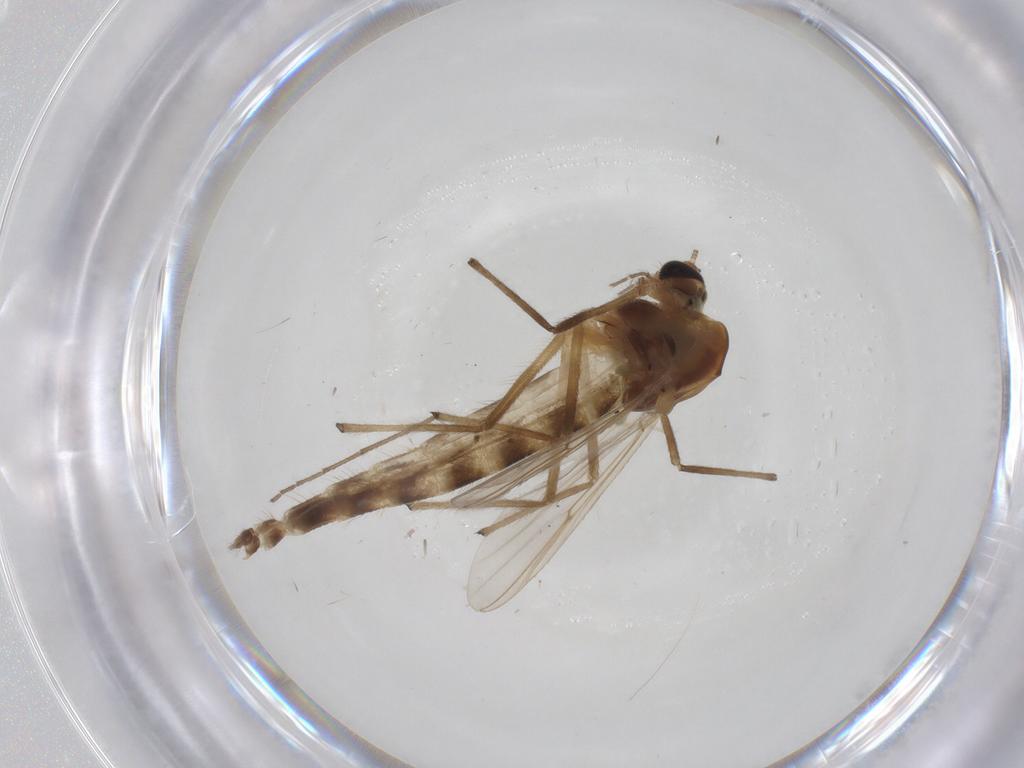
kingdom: Animalia
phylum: Arthropoda
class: Insecta
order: Diptera
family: Chironomidae
